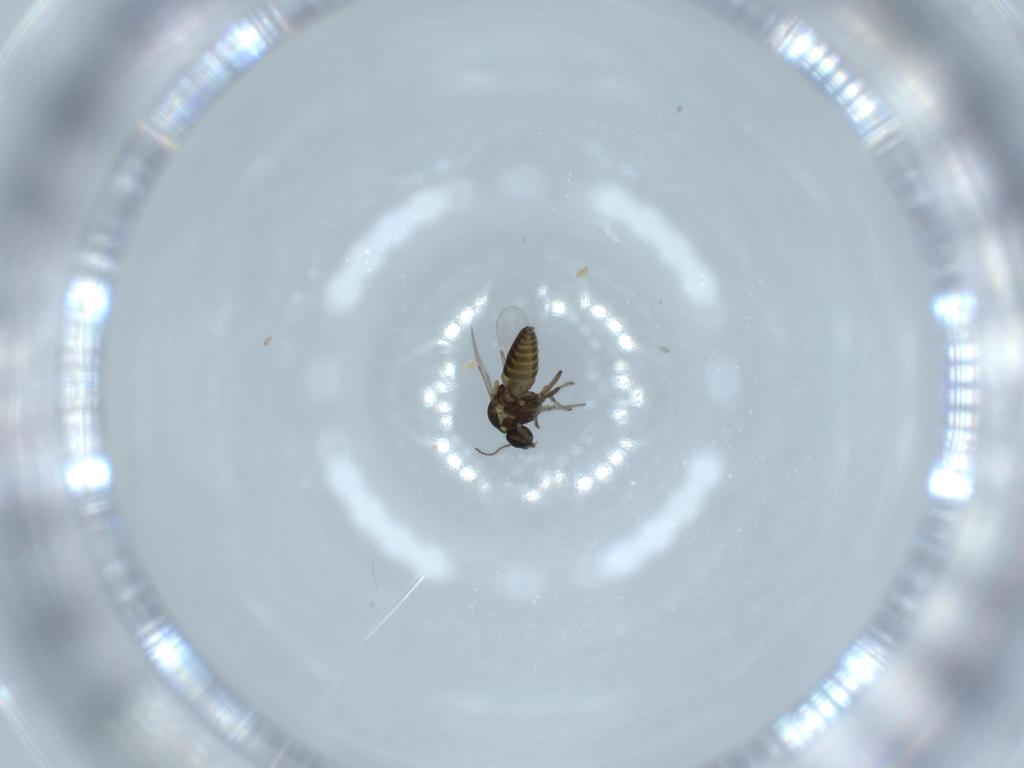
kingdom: Animalia
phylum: Arthropoda
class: Insecta
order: Diptera
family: Ceratopogonidae
